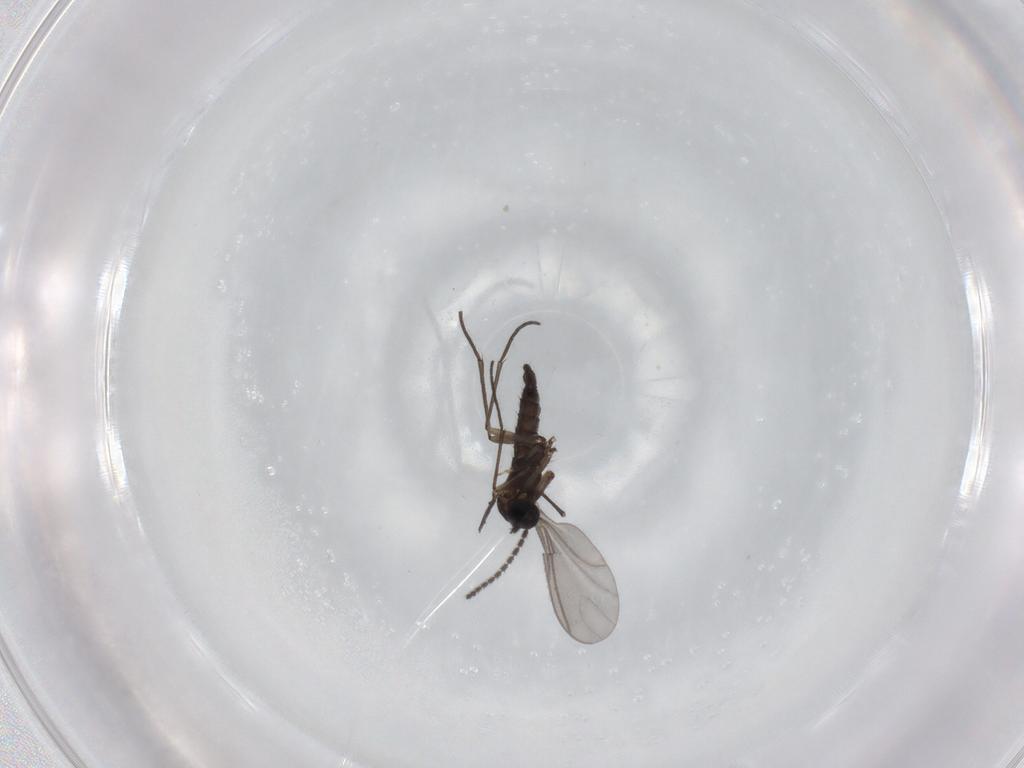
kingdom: Animalia
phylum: Arthropoda
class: Insecta
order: Diptera
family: Sciaridae
